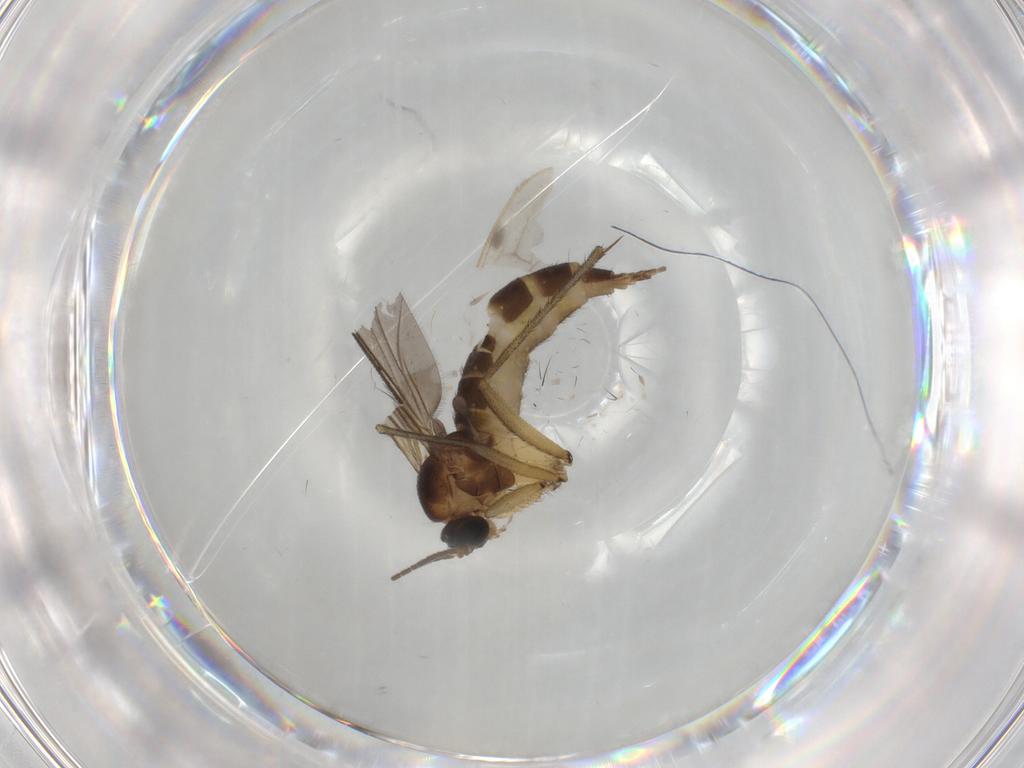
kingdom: Animalia
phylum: Arthropoda
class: Insecta
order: Diptera
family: Sciaridae
